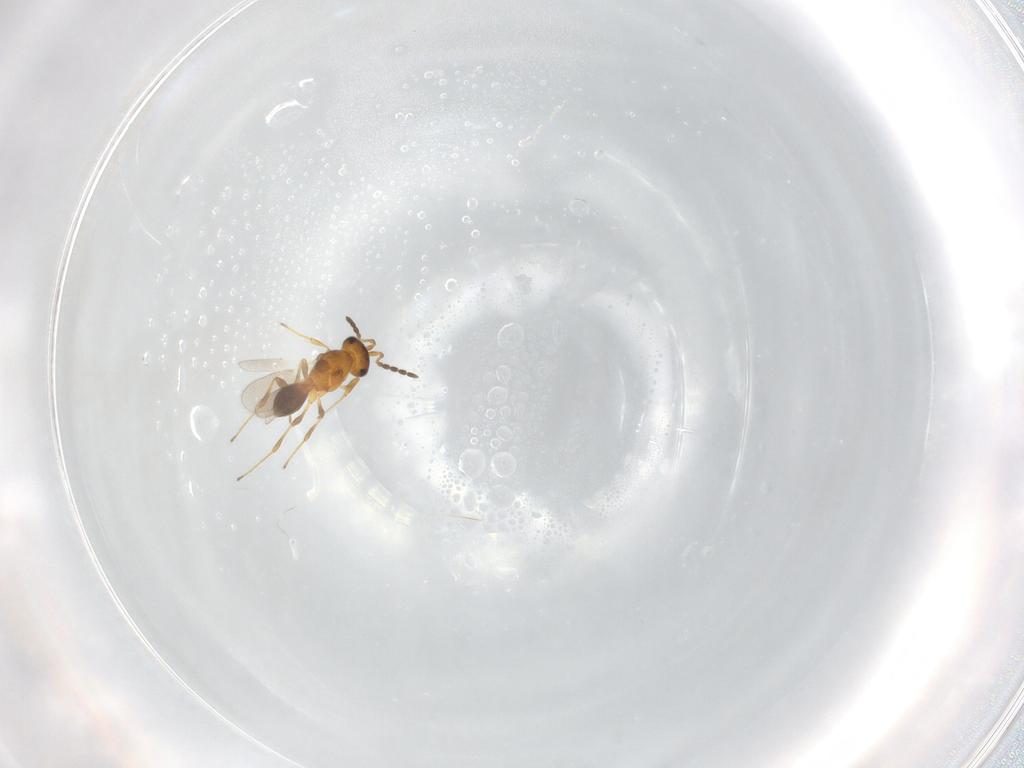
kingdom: Animalia
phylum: Arthropoda
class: Insecta
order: Hymenoptera
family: Platygastridae
